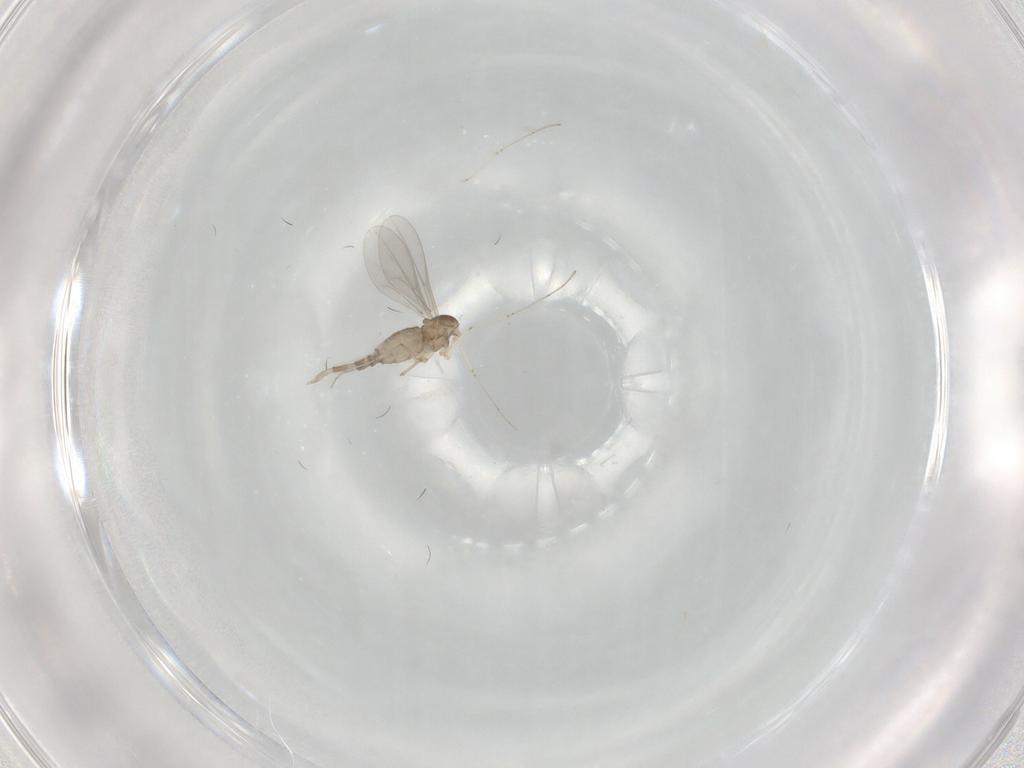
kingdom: Animalia
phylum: Arthropoda
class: Insecta
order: Diptera
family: Cecidomyiidae
